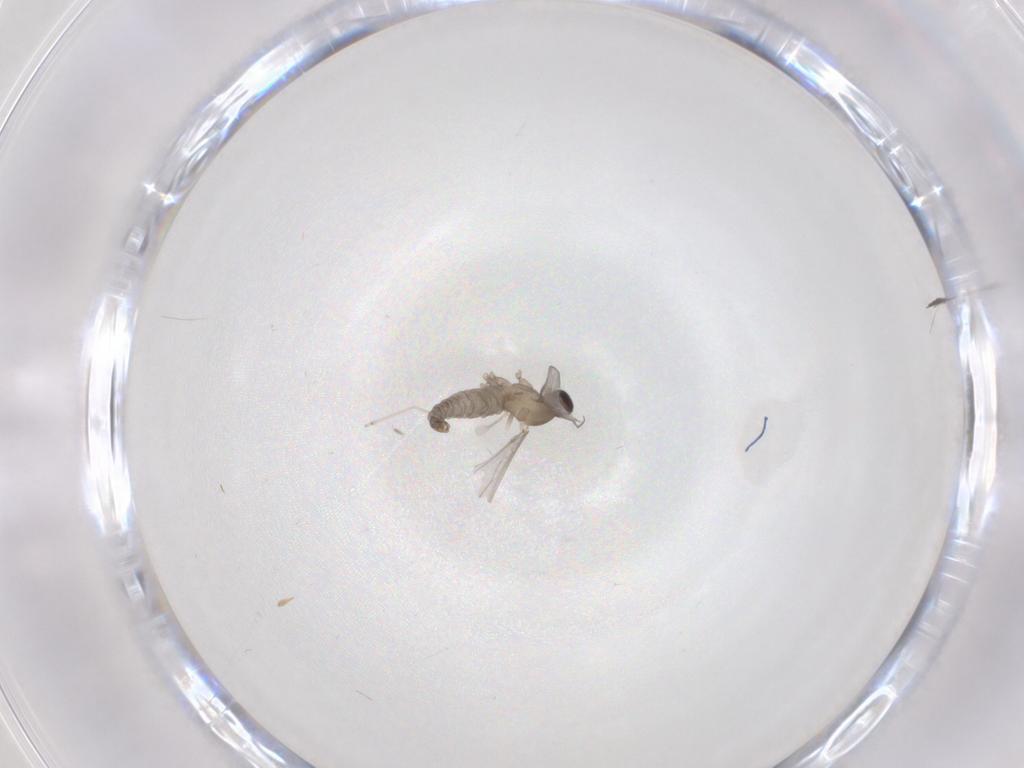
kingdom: Animalia
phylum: Arthropoda
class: Insecta
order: Diptera
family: Cecidomyiidae
